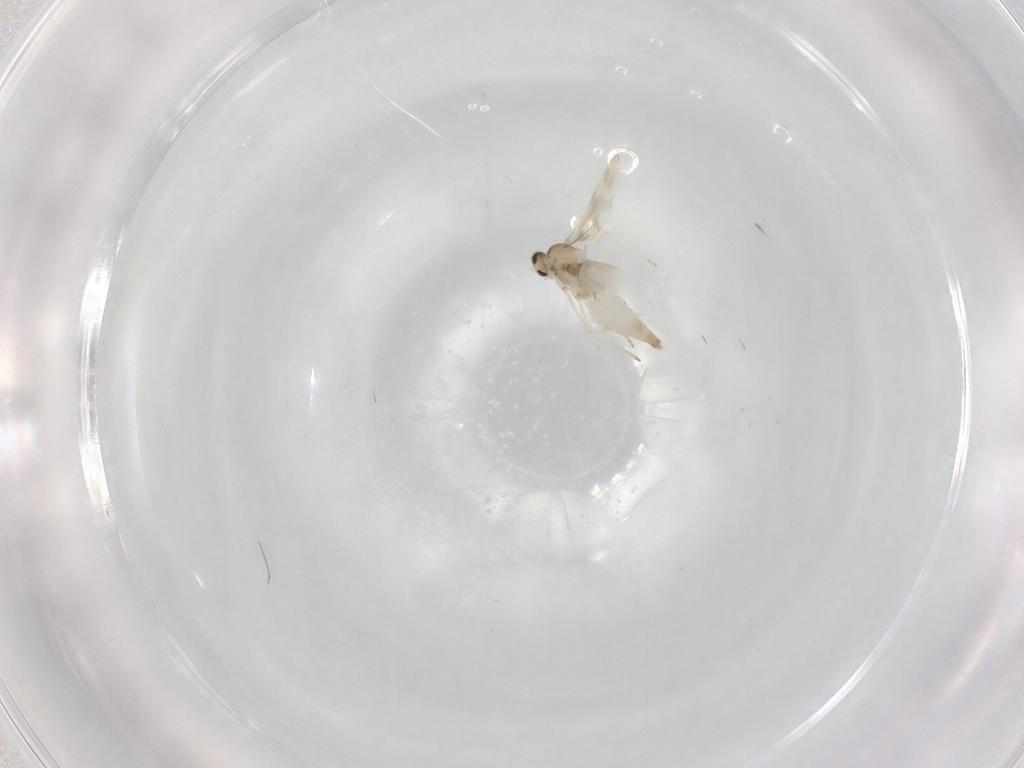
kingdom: Animalia
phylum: Arthropoda
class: Insecta
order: Diptera
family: Cecidomyiidae
